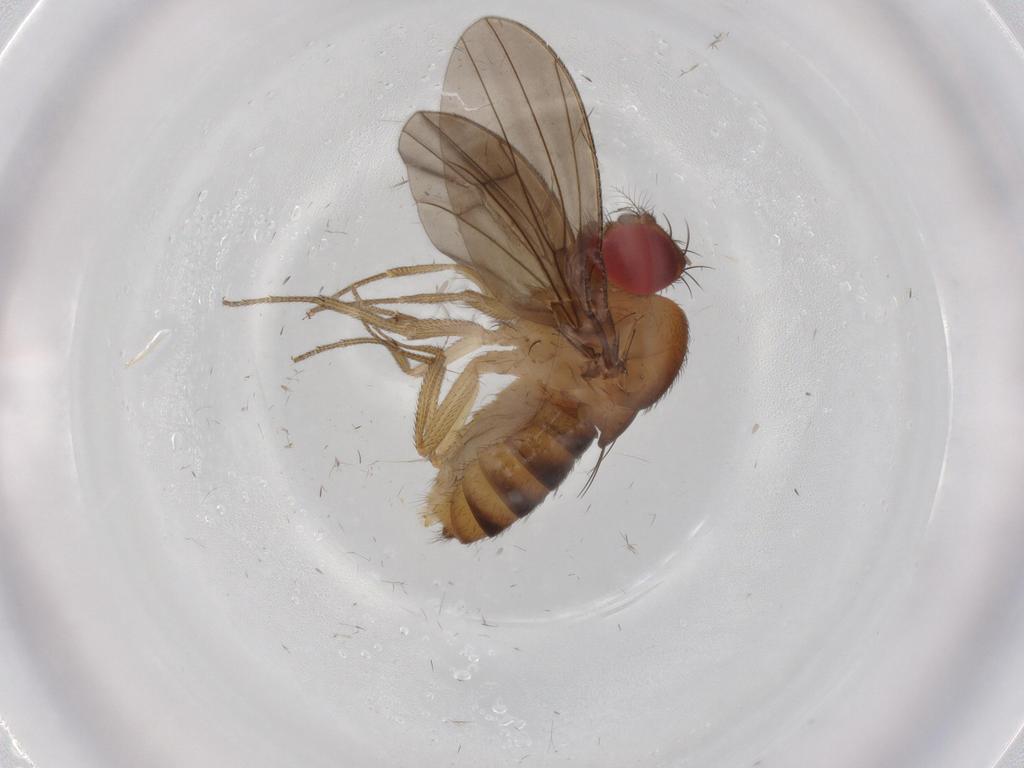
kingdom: Animalia
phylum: Arthropoda
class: Insecta
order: Diptera
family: Drosophilidae
